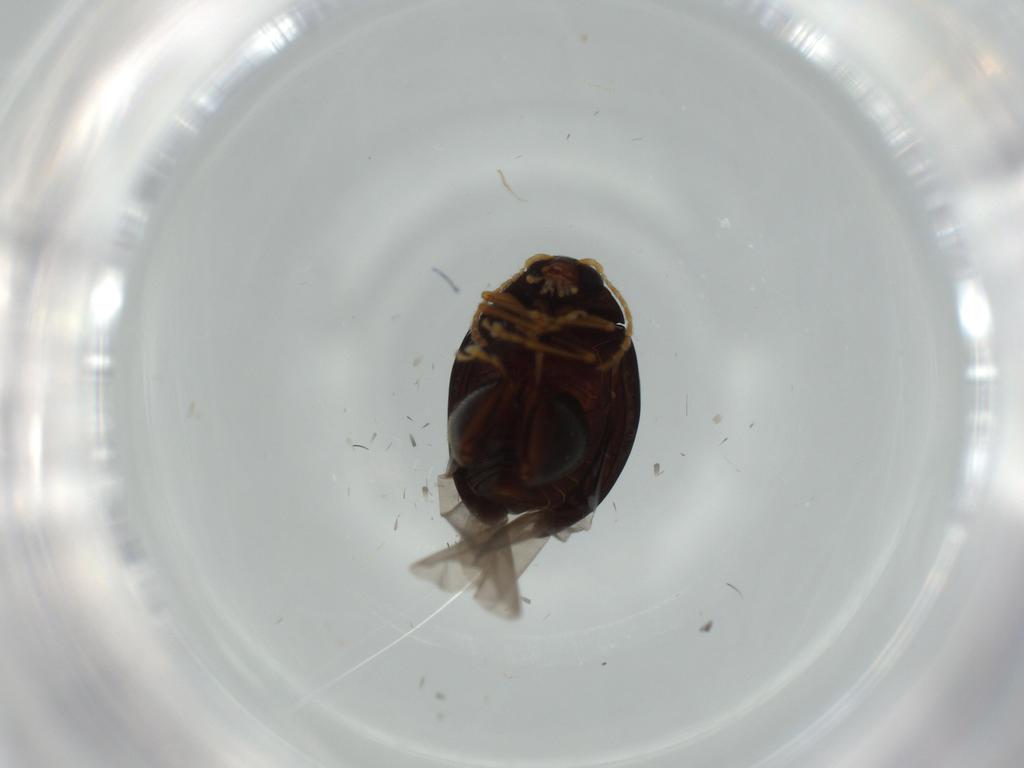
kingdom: Animalia
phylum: Arthropoda
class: Insecta
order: Coleoptera
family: Chrysomelidae
